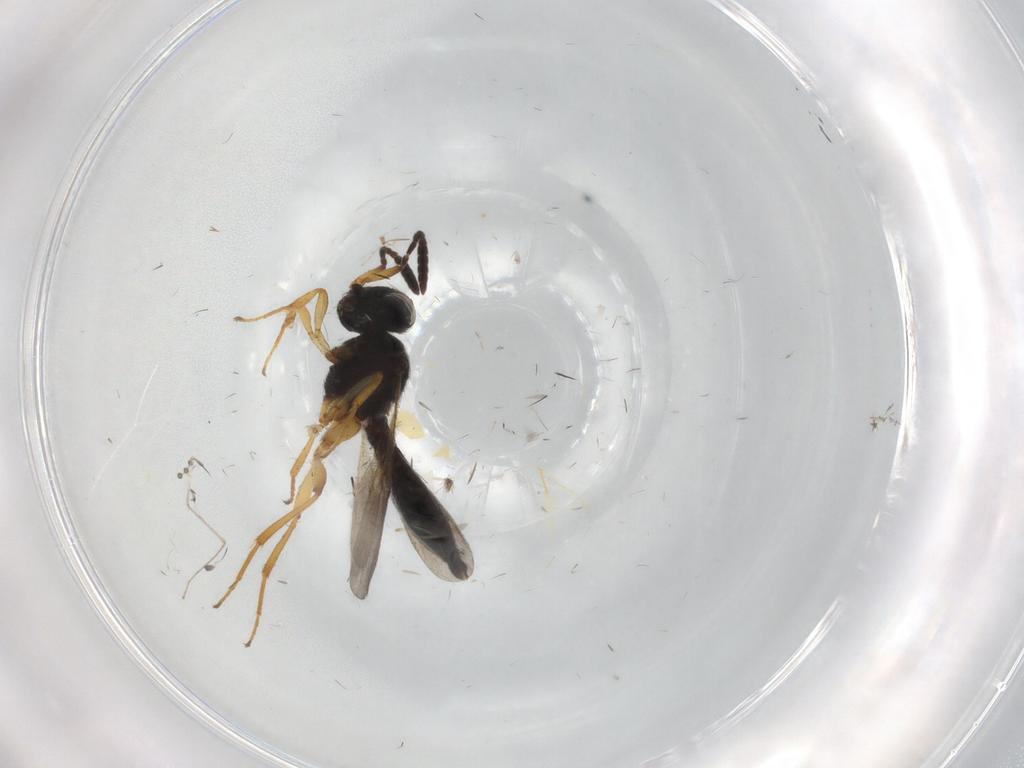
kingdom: Animalia
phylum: Arthropoda
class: Insecta
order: Hymenoptera
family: Scelionidae
